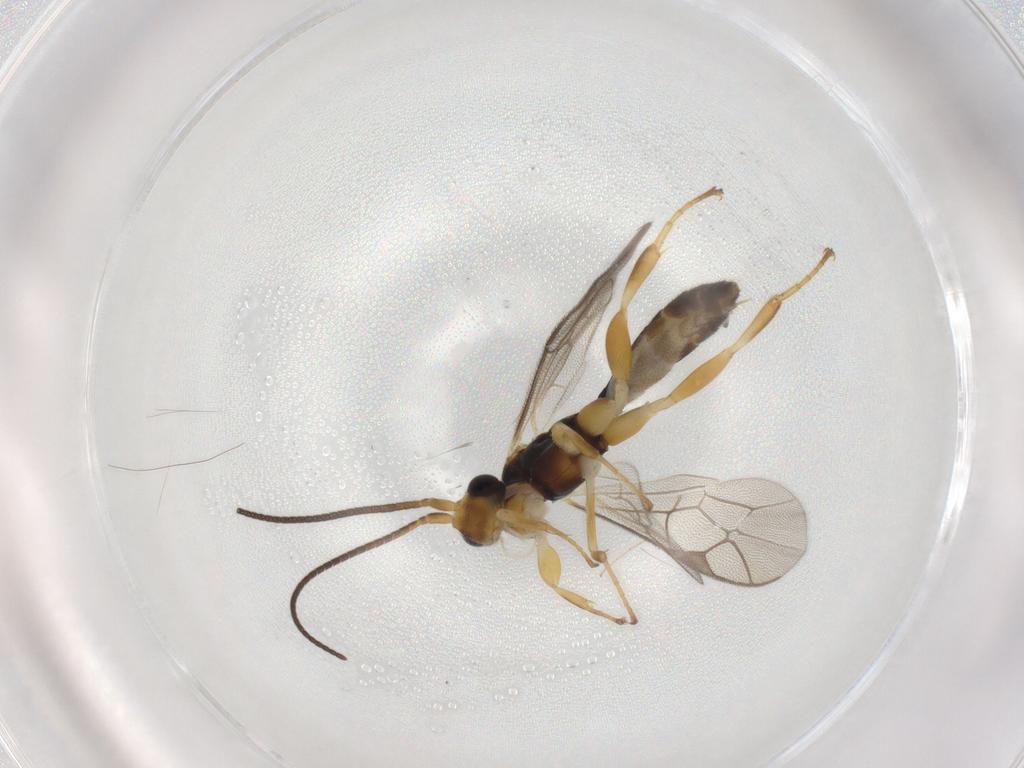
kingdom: Animalia
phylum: Arthropoda
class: Insecta
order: Hymenoptera
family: Ichneumonidae
